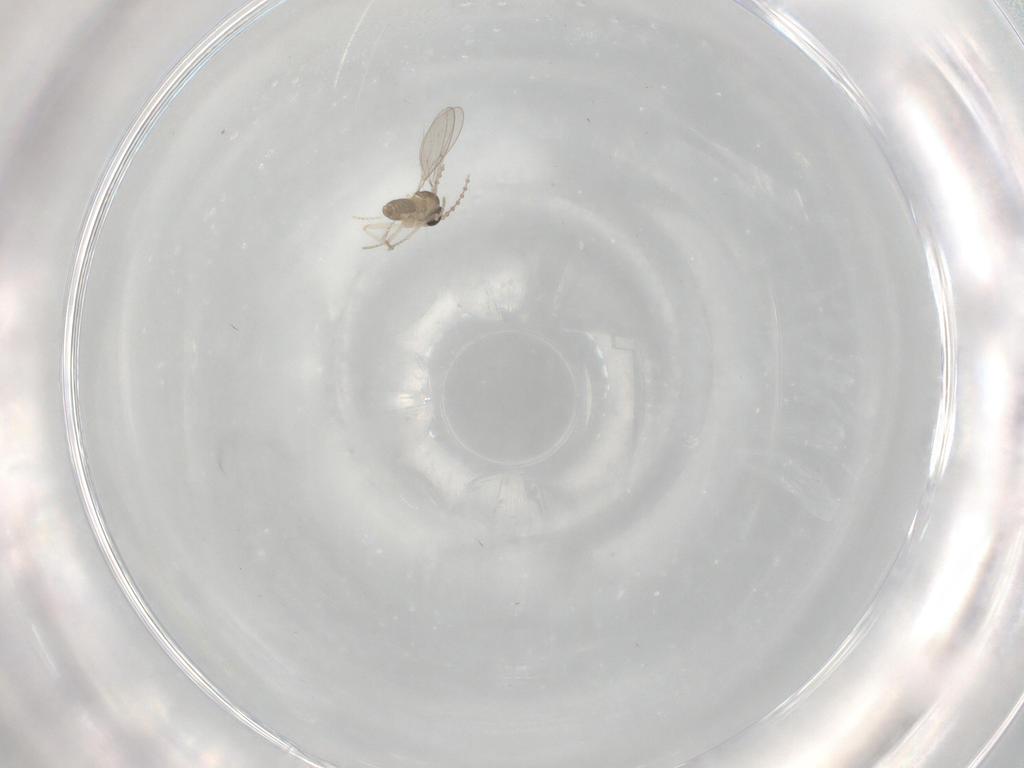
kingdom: Animalia
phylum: Arthropoda
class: Insecta
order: Diptera
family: Cecidomyiidae
